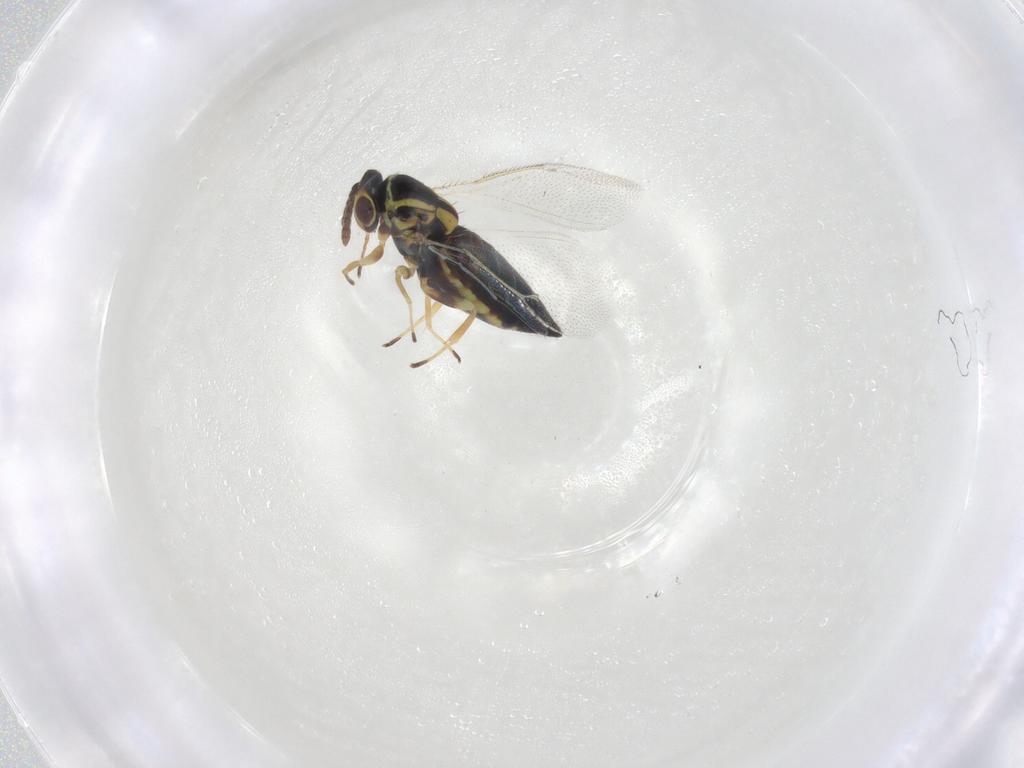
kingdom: Animalia
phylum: Arthropoda
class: Insecta
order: Hymenoptera
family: Eulophidae
